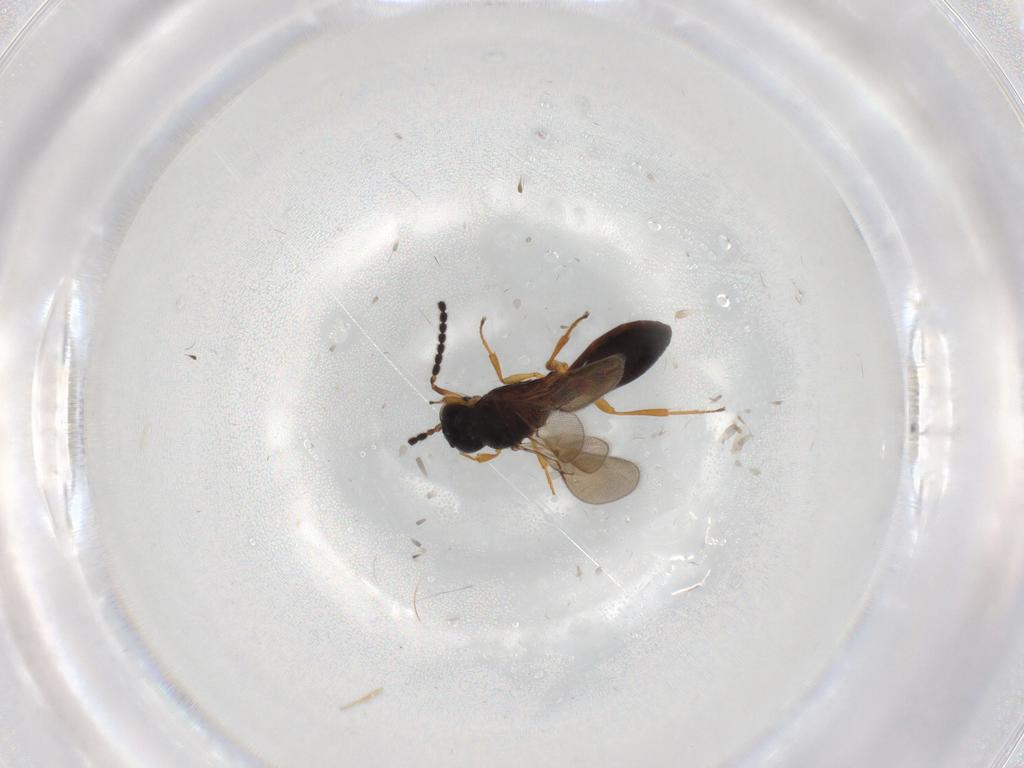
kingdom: Animalia
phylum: Arthropoda
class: Insecta
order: Hymenoptera
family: Scelionidae
